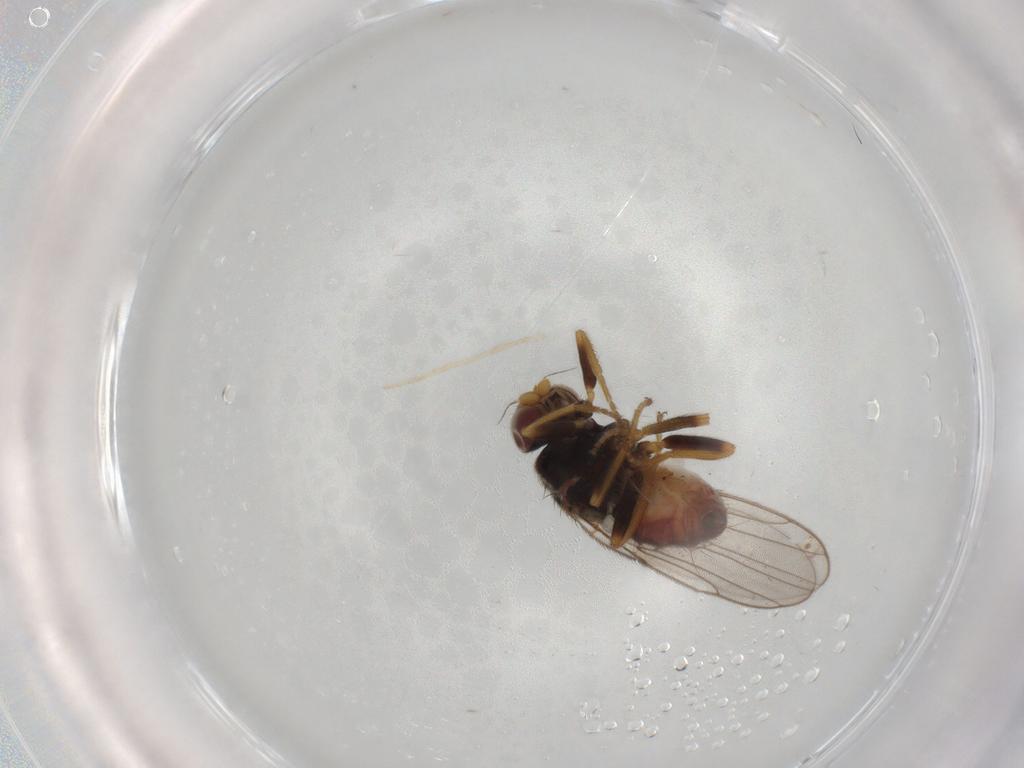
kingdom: Animalia
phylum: Arthropoda
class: Insecta
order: Diptera
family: Chloropidae
